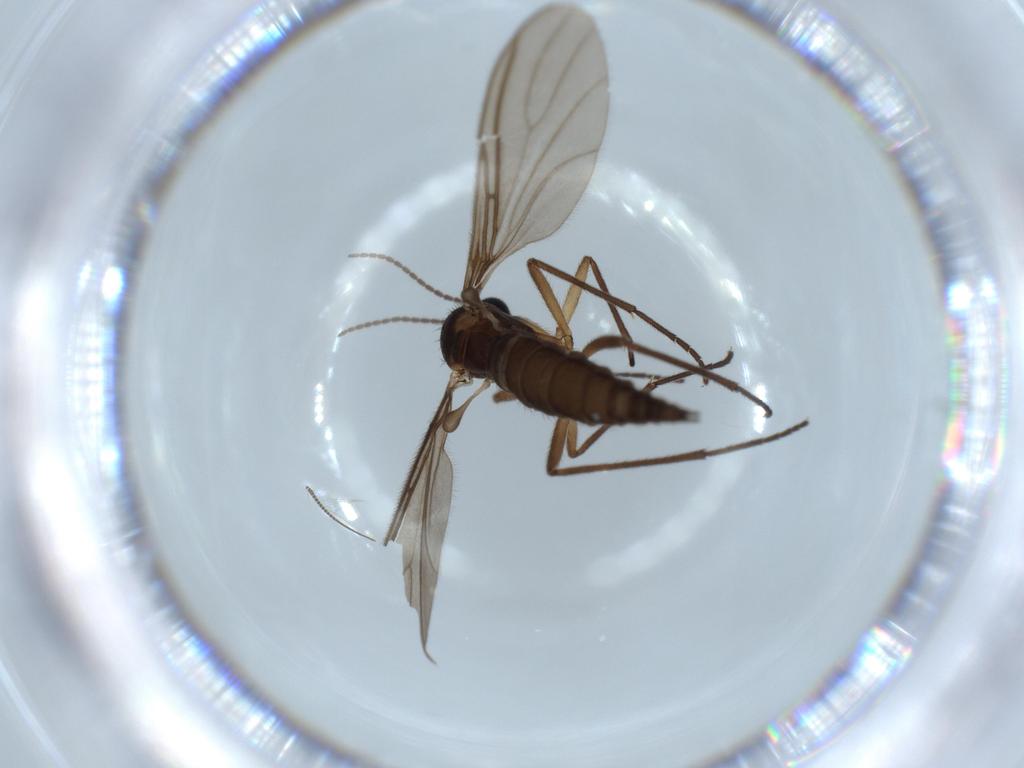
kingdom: Animalia
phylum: Arthropoda
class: Insecta
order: Diptera
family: Sciaridae
